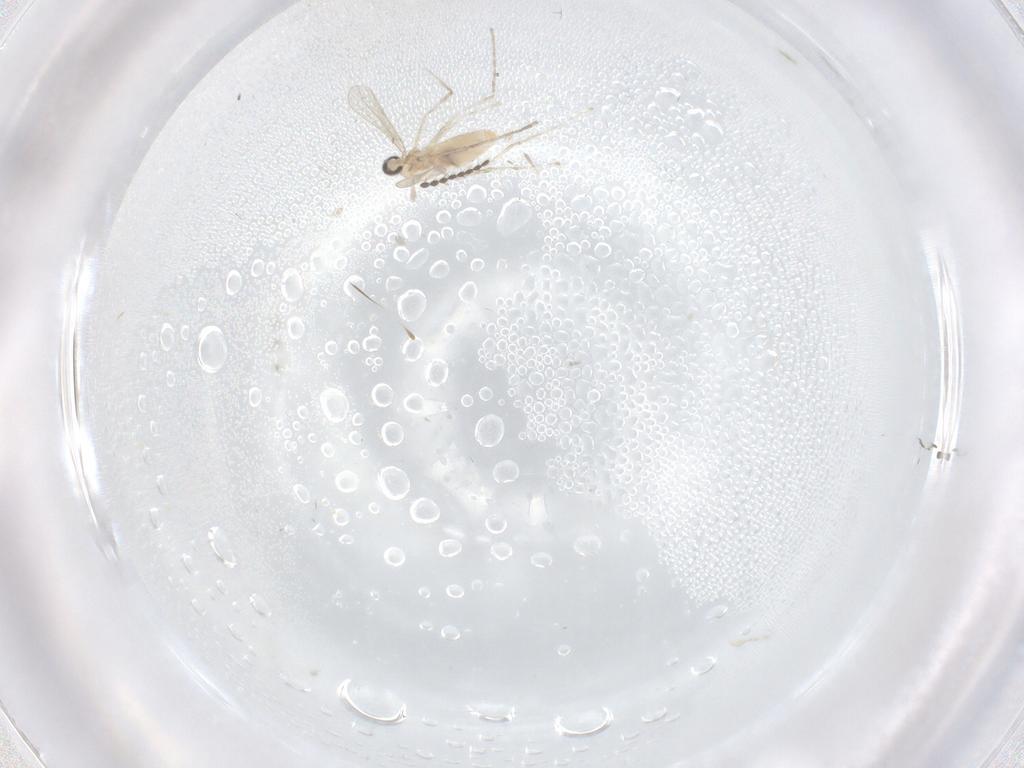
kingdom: Animalia
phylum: Arthropoda
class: Insecta
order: Diptera
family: Limoniidae
